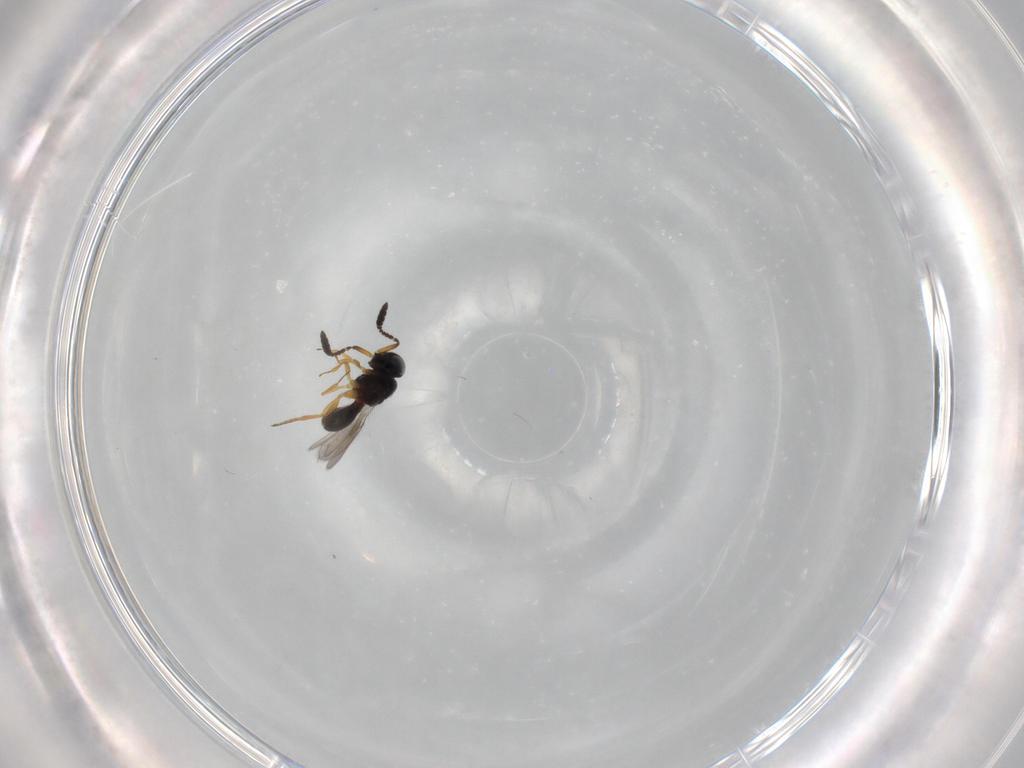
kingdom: Animalia
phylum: Arthropoda
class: Insecta
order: Hymenoptera
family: Scelionidae
